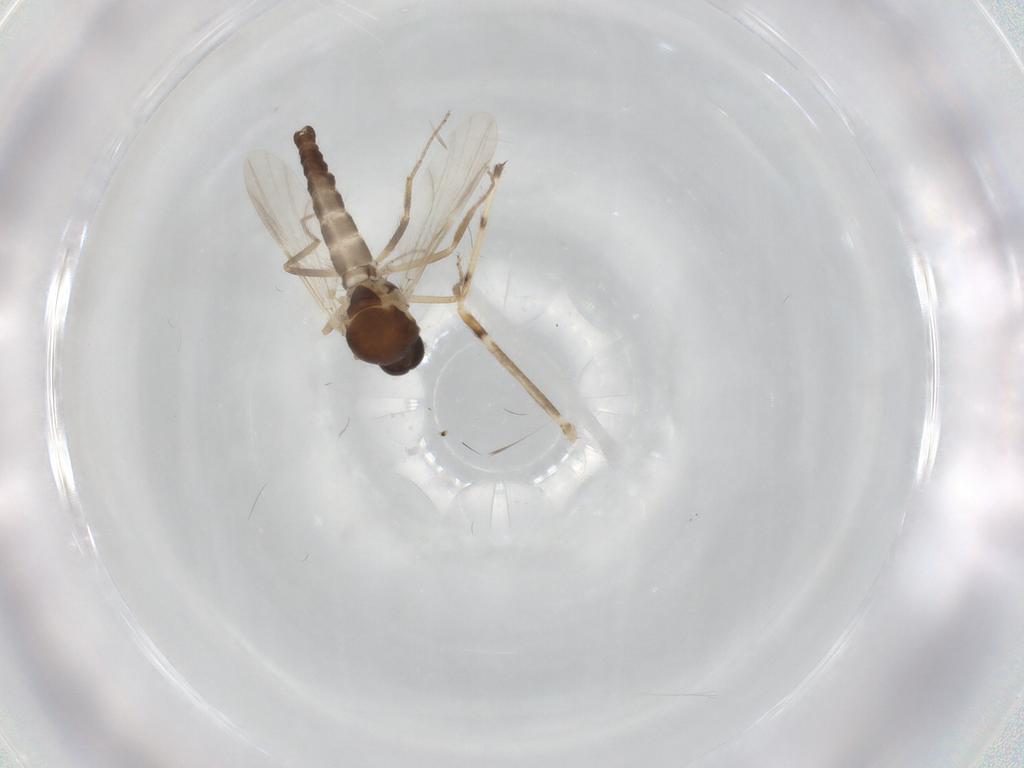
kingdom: Animalia
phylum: Arthropoda
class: Insecta
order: Diptera
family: Ceratopogonidae
